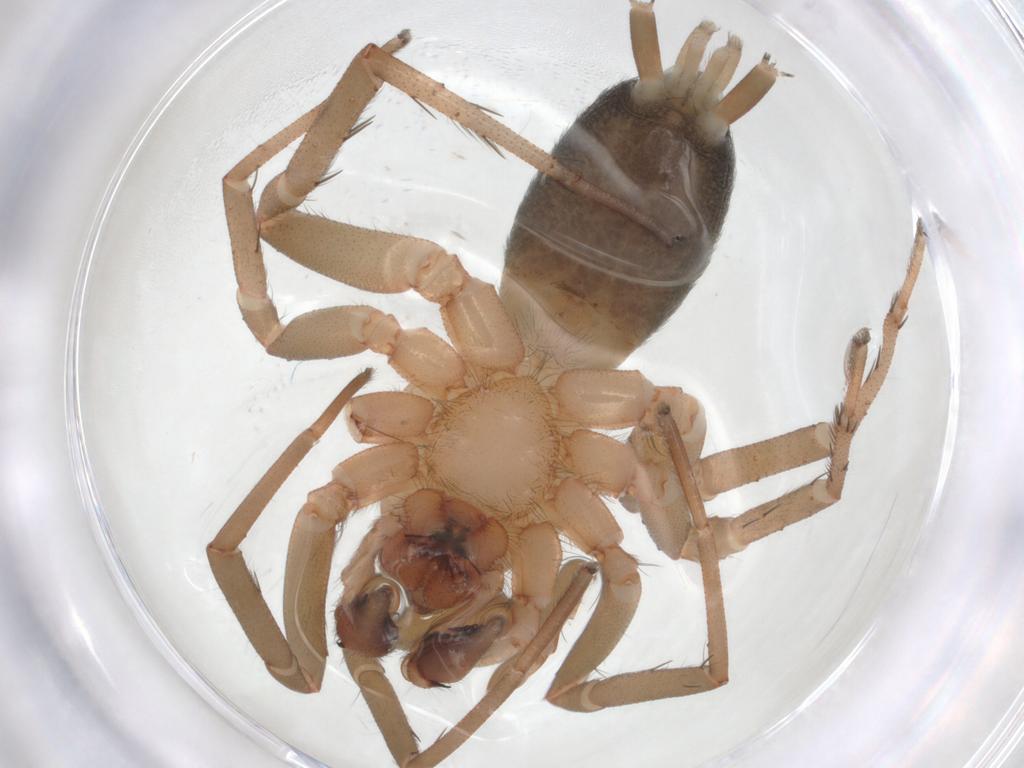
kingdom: Animalia
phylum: Arthropoda
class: Arachnida
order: Araneae
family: Gnaphosidae
